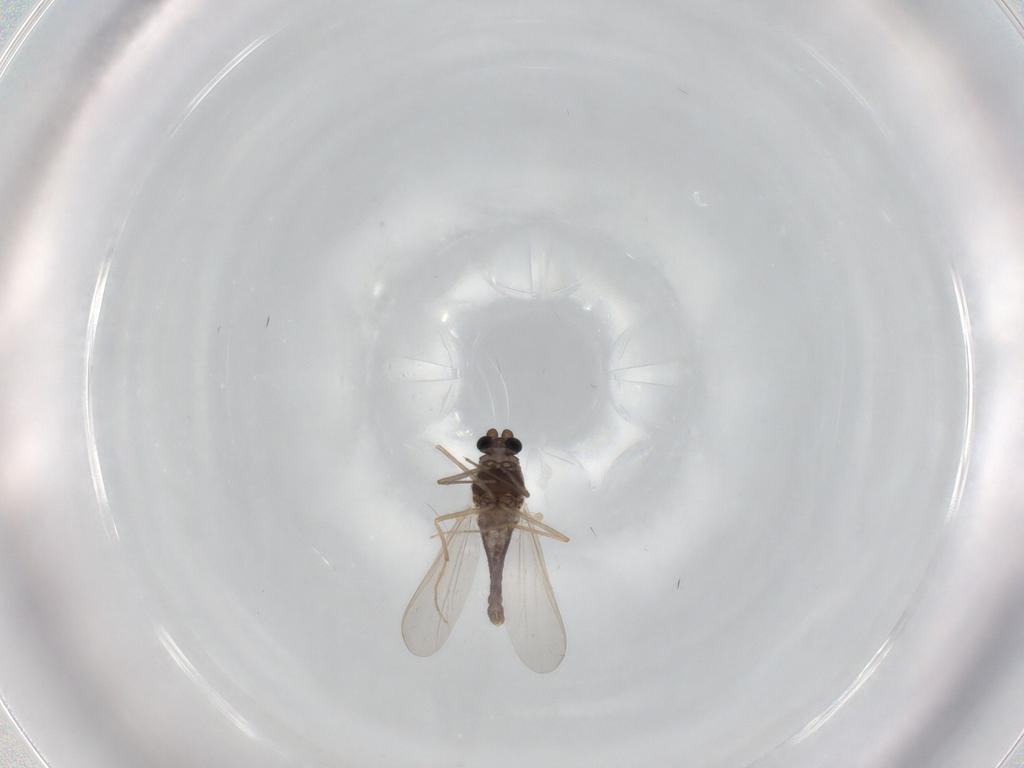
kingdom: Animalia
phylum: Arthropoda
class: Insecta
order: Diptera
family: Chironomidae
